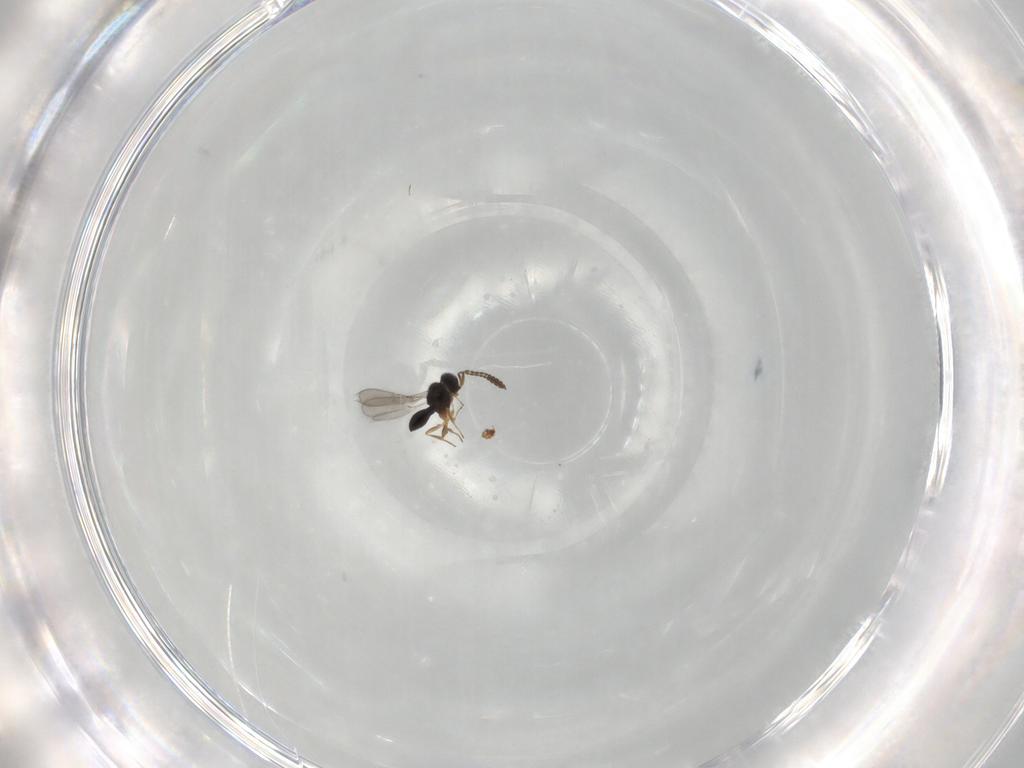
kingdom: Animalia
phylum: Arthropoda
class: Insecta
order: Hymenoptera
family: Scelionidae
